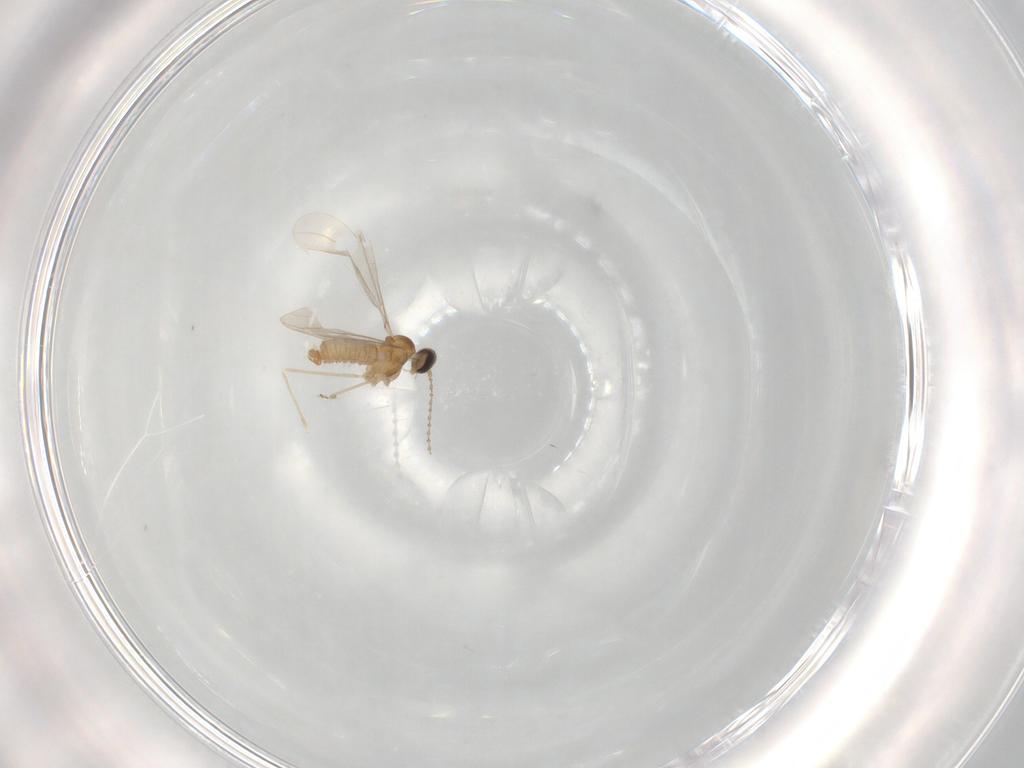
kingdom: Animalia
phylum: Arthropoda
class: Insecta
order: Diptera
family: Cecidomyiidae
